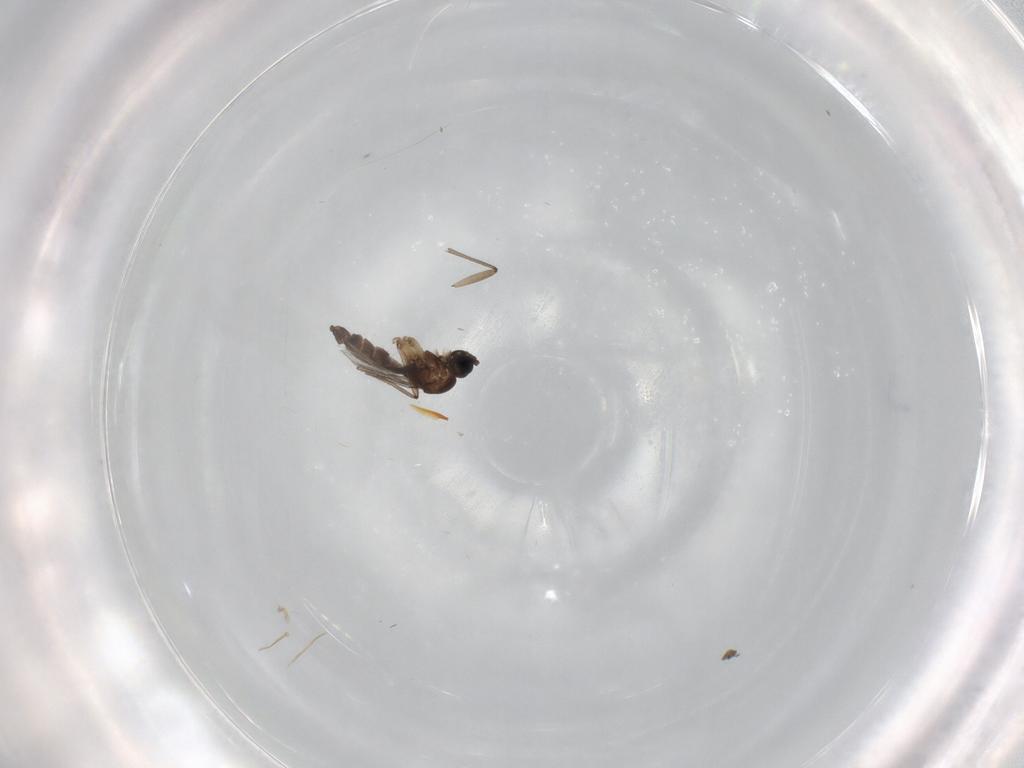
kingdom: Animalia
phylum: Arthropoda
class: Insecta
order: Diptera
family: Sciaridae
